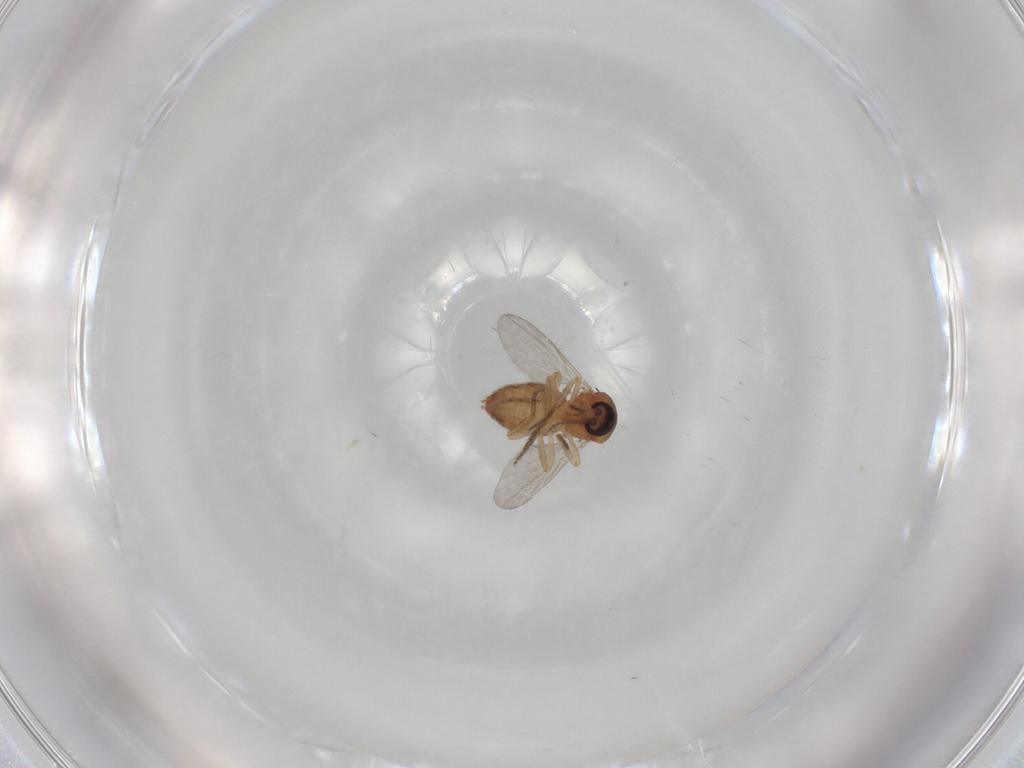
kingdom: Animalia
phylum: Arthropoda
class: Insecta
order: Diptera
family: Ceratopogonidae
